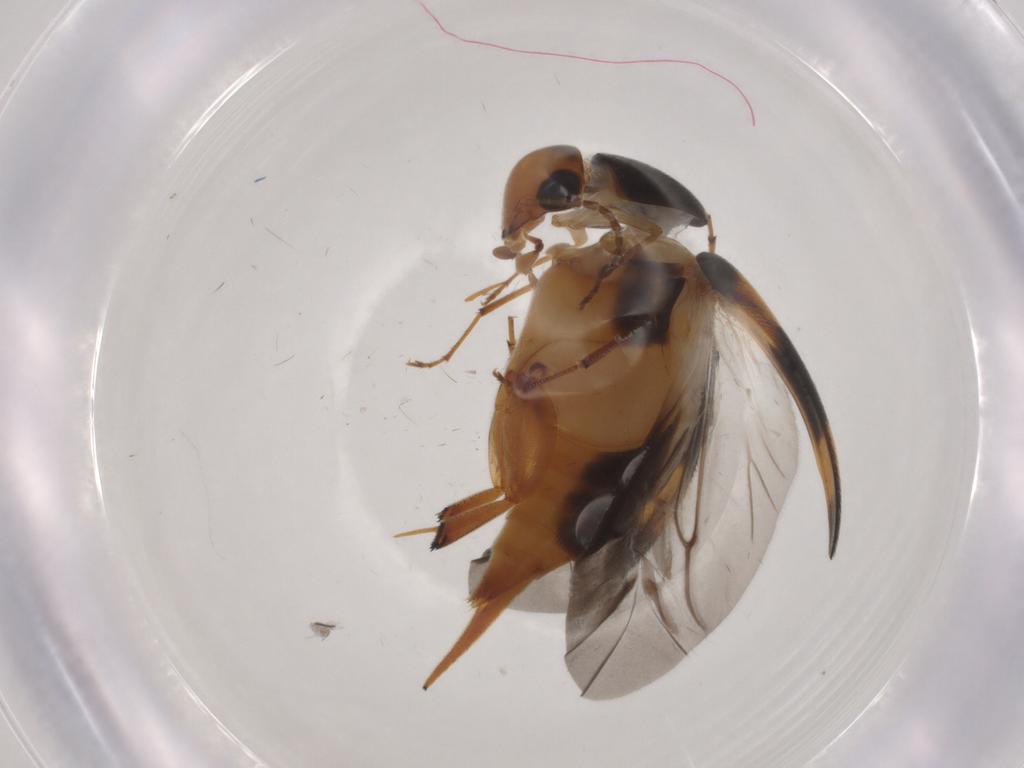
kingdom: Animalia
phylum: Arthropoda
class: Insecta
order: Coleoptera
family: Mordellidae
